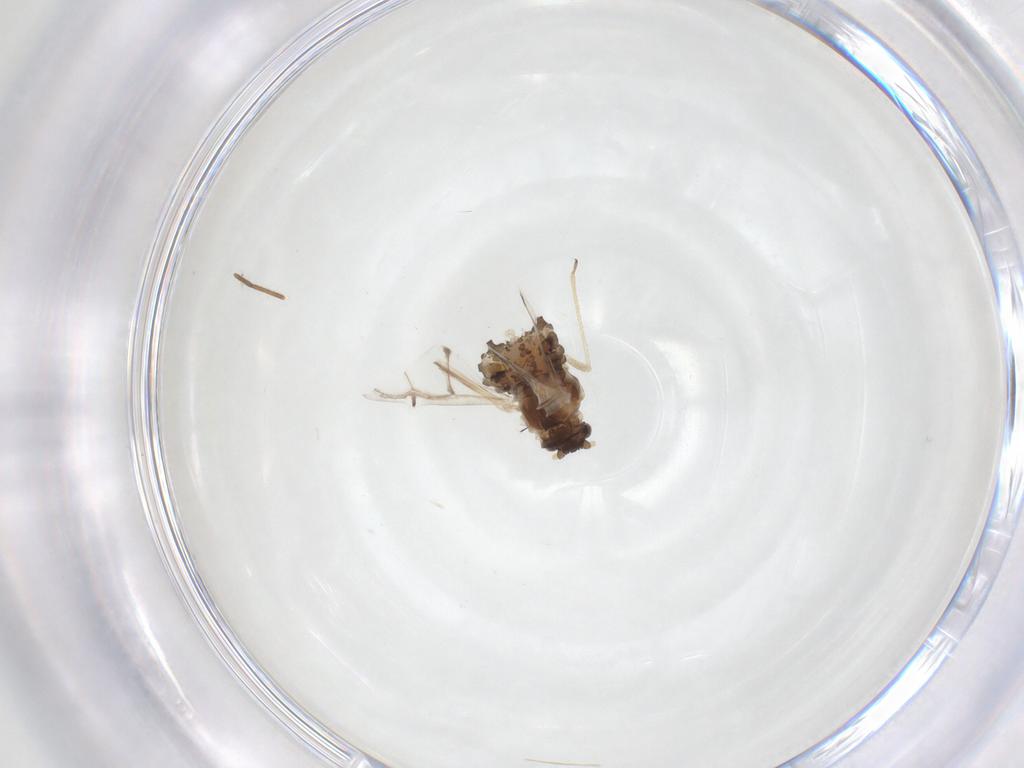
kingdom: Animalia
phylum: Arthropoda
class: Insecta
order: Hemiptera
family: Aphididae
